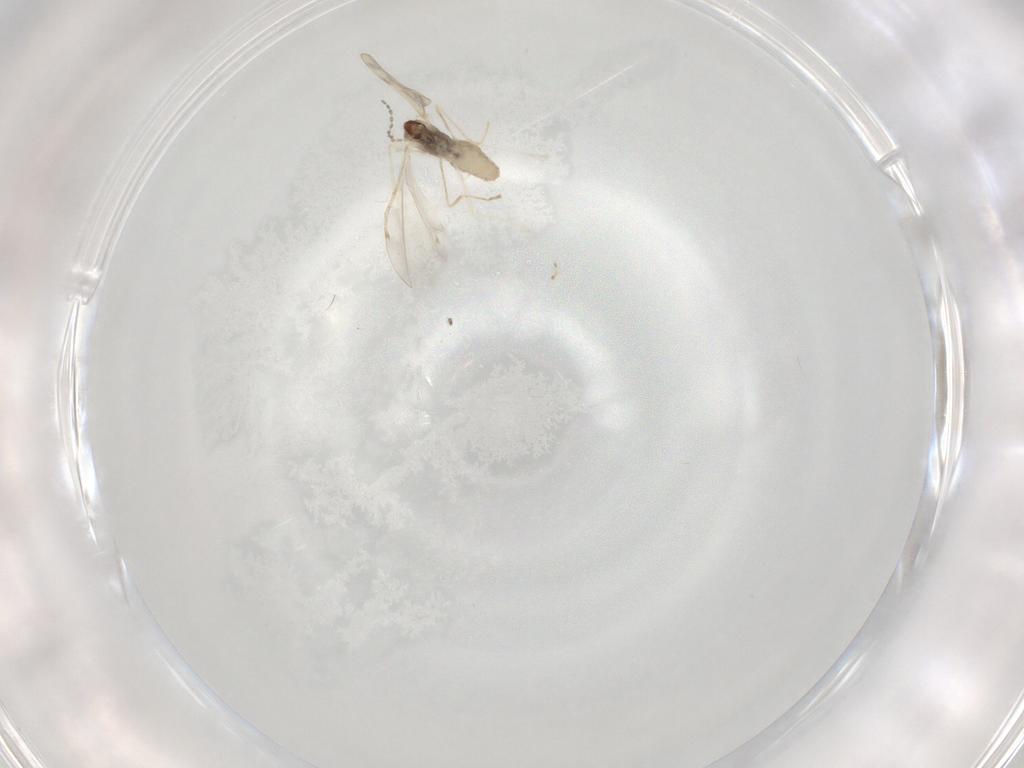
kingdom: Animalia
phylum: Arthropoda
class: Insecta
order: Diptera
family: Cecidomyiidae
